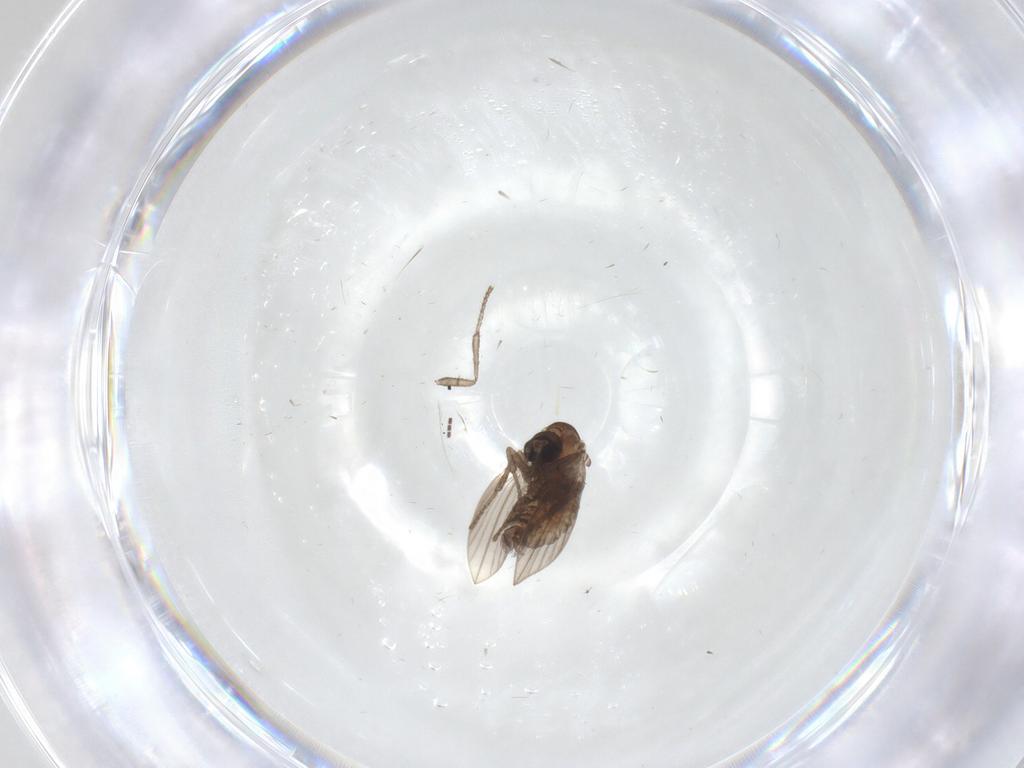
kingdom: Animalia
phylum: Arthropoda
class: Insecta
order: Diptera
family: Psychodidae
